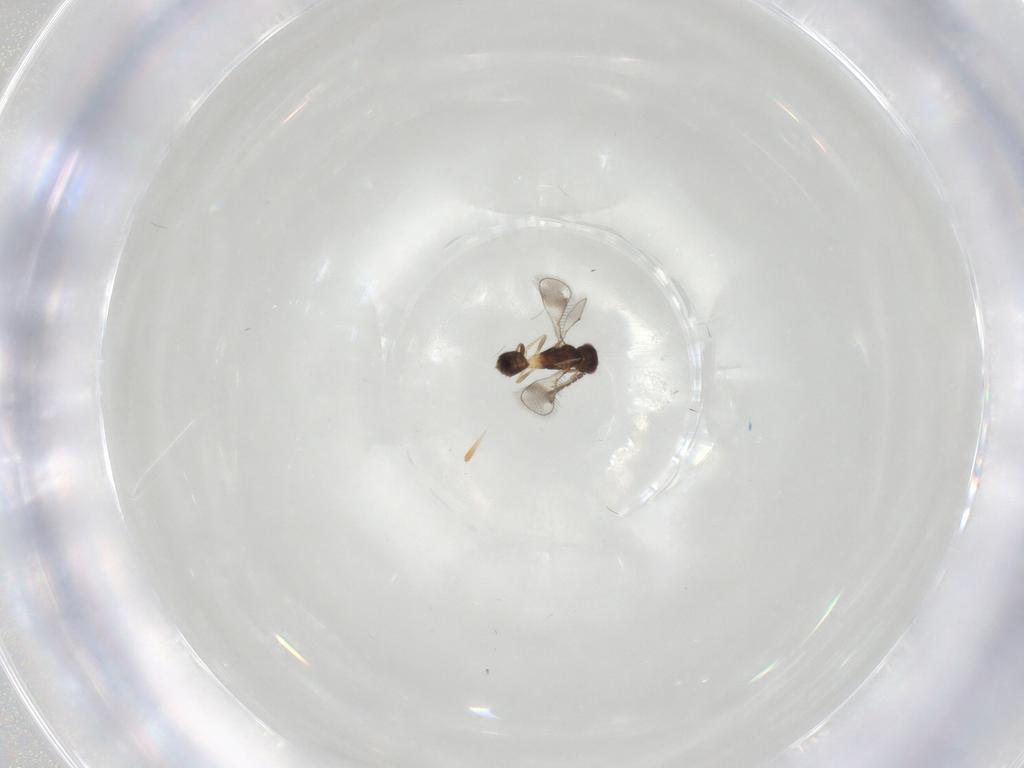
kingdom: Animalia
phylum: Arthropoda
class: Insecta
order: Hymenoptera
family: Pteromalidae
